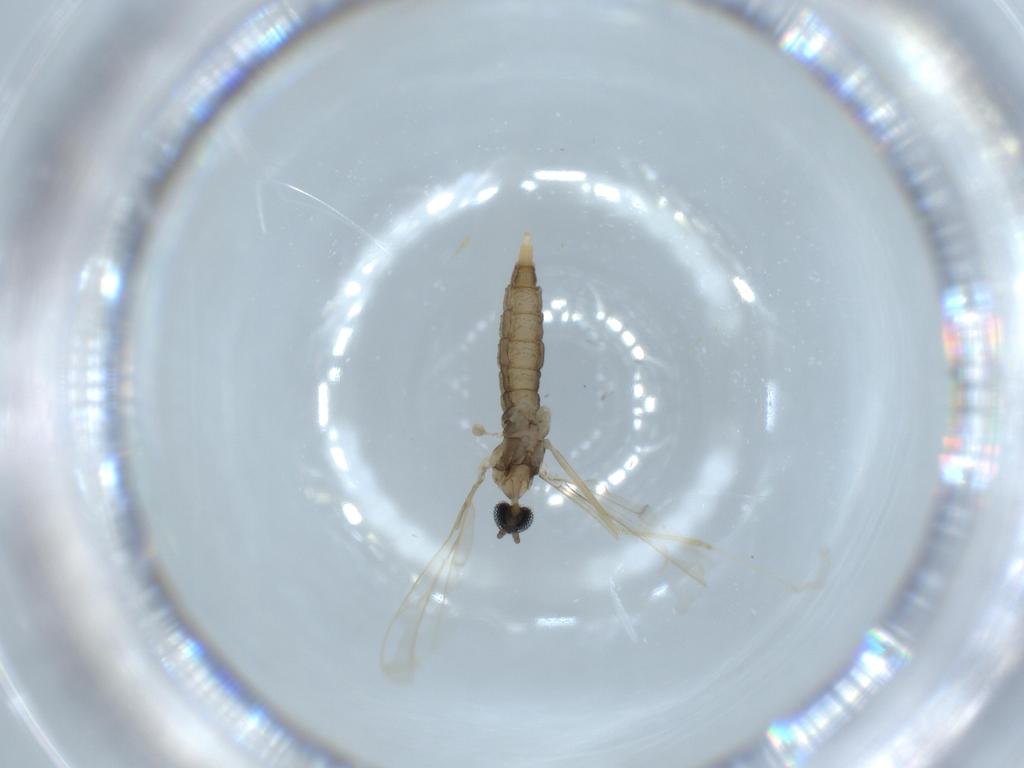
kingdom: Animalia
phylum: Arthropoda
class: Insecta
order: Diptera
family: Cecidomyiidae
